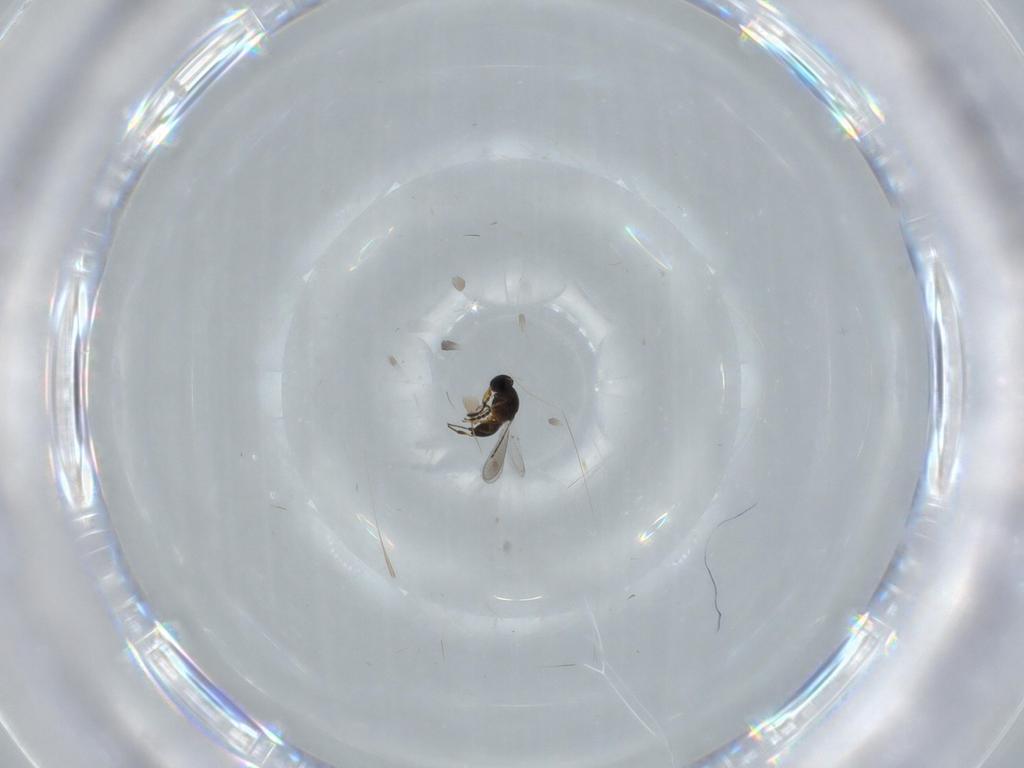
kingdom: Animalia
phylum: Arthropoda
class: Insecta
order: Hymenoptera
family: Platygastridae
